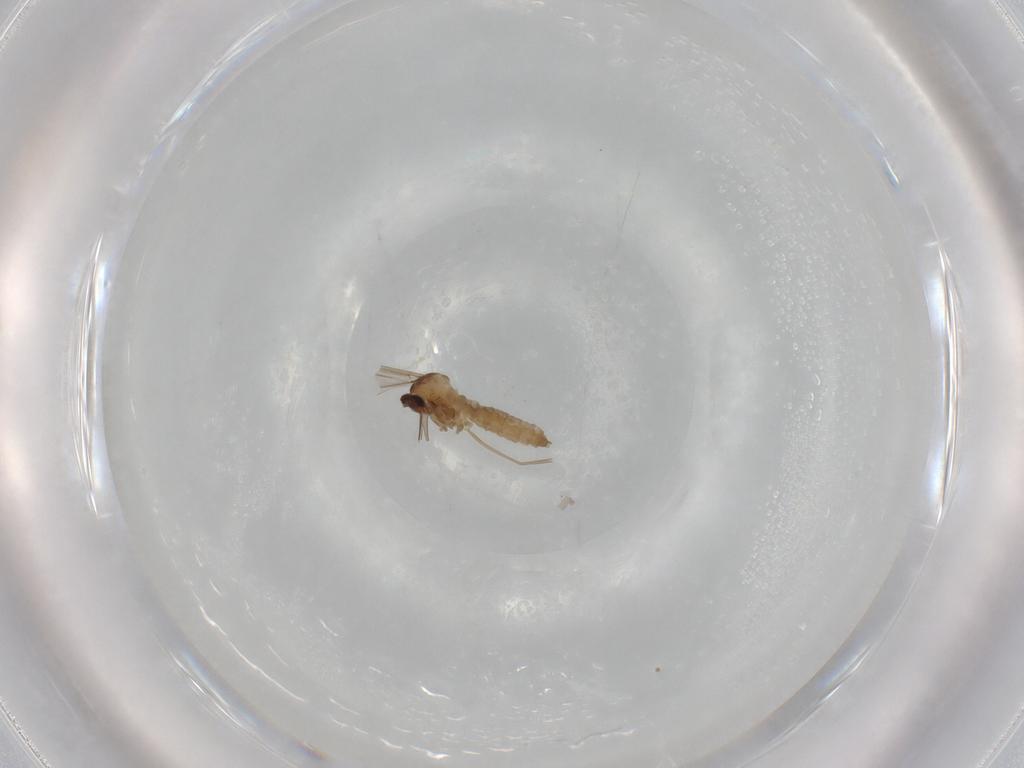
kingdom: Animalia
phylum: Arthropoda
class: Insecta
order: Diptera
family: Cecidomyiidae
